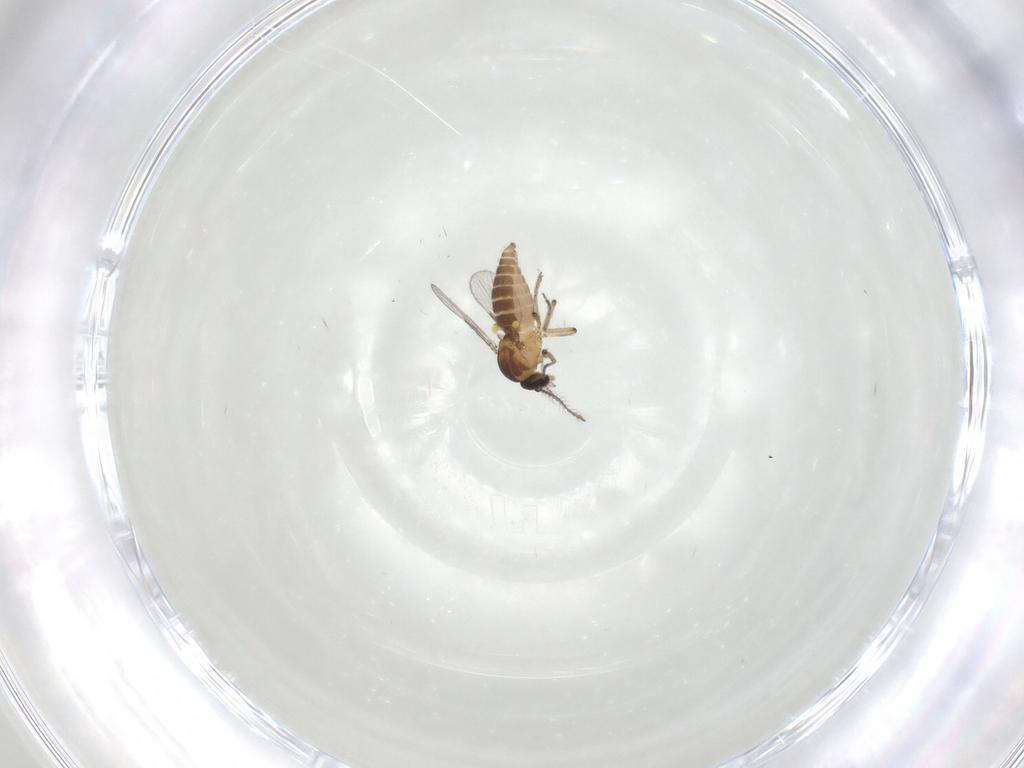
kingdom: Animalia
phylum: Arthropoda
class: Insecta
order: Diptera
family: Ceratopogonidae
